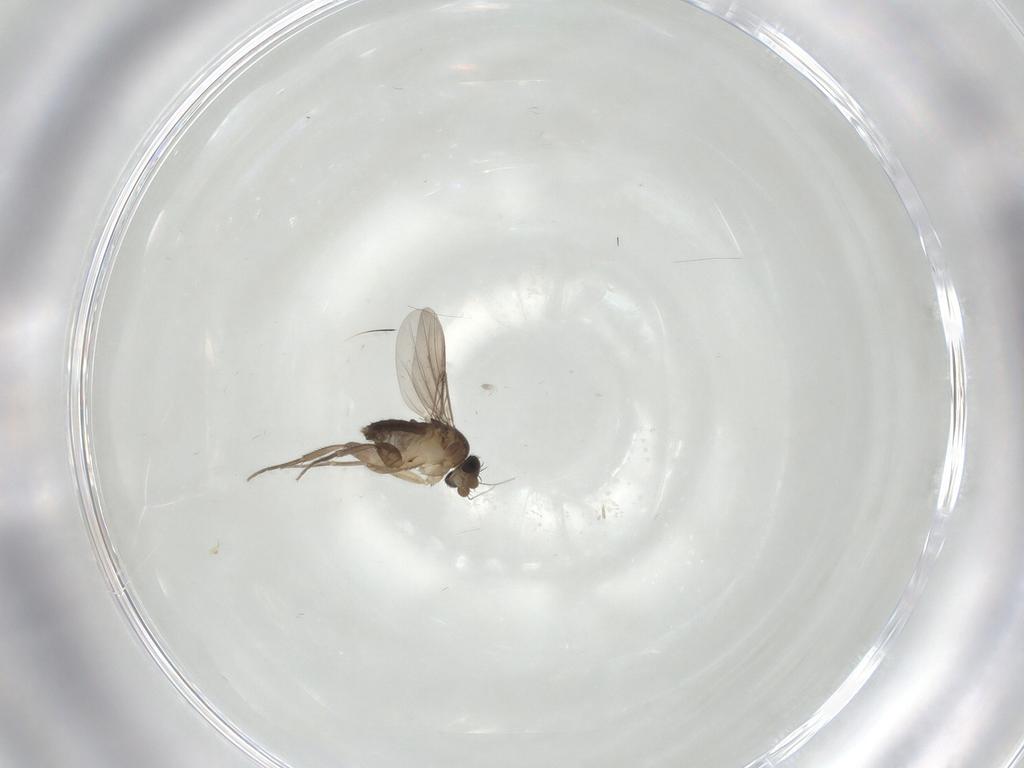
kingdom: Animalia
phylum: Arthropoda
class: Insecta
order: Diptera
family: Phoridae
